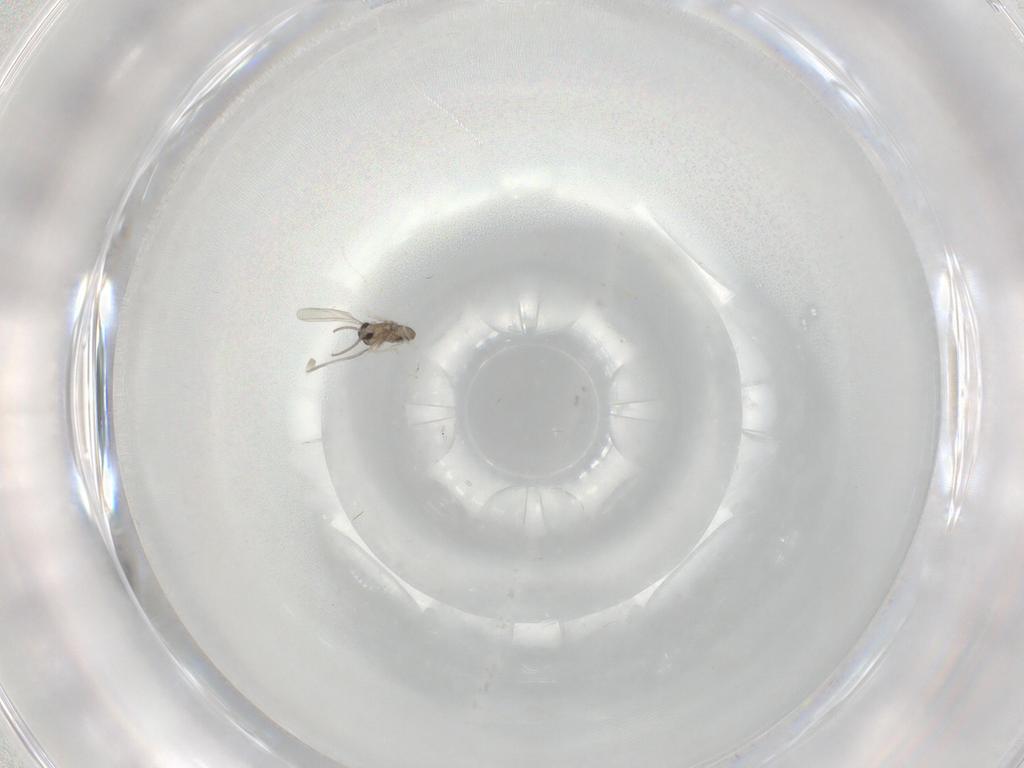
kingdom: Animalia
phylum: Arthropoda
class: Insecta
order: Diptera
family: Cecidomyiidae
